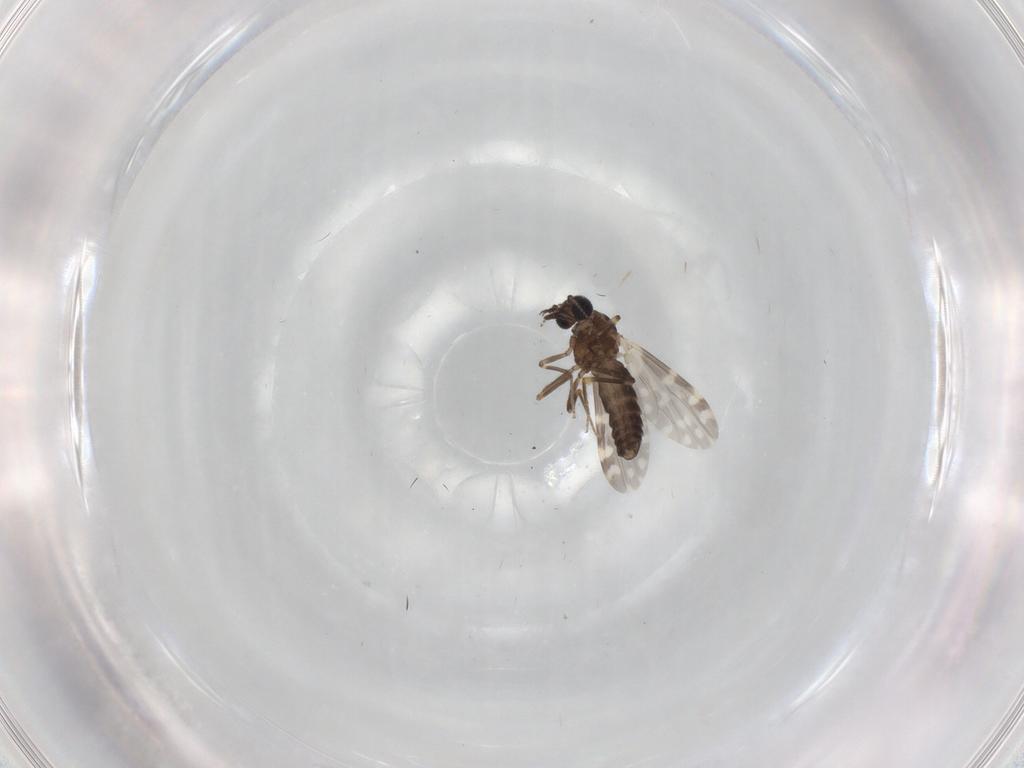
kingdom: Animalia
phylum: Arthropoda
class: Insecta
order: Diptera
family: Ceratopogonidae
